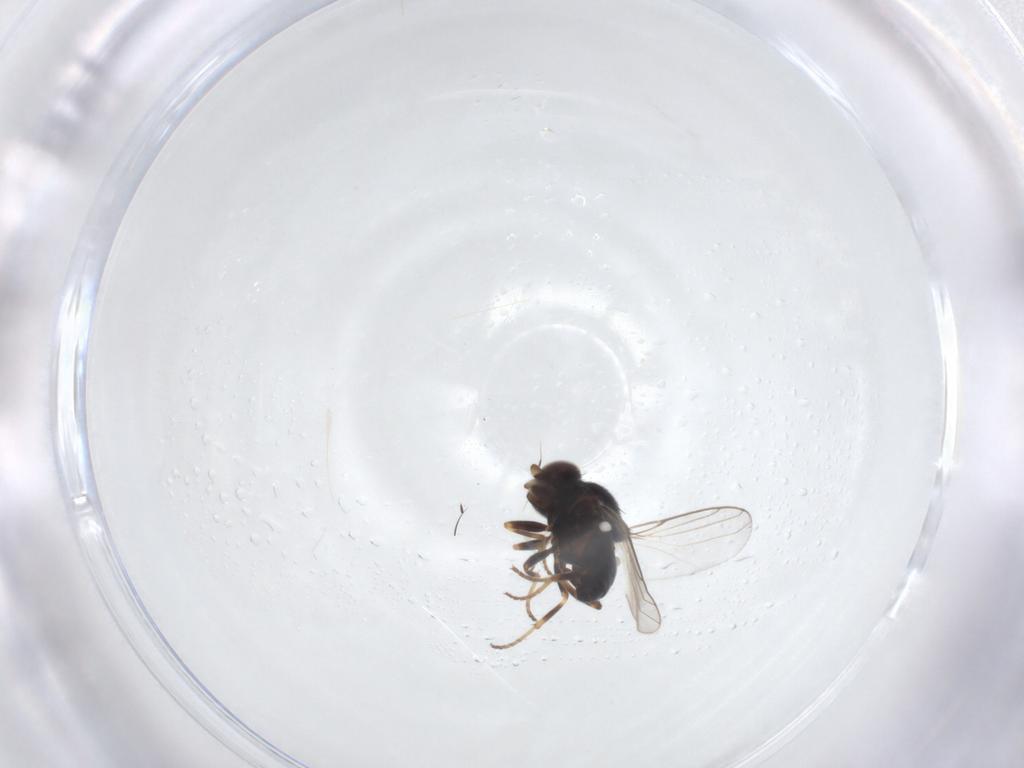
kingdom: Animalia
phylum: Arthropoda
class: Insecta
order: Diptera
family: Chloropidae
